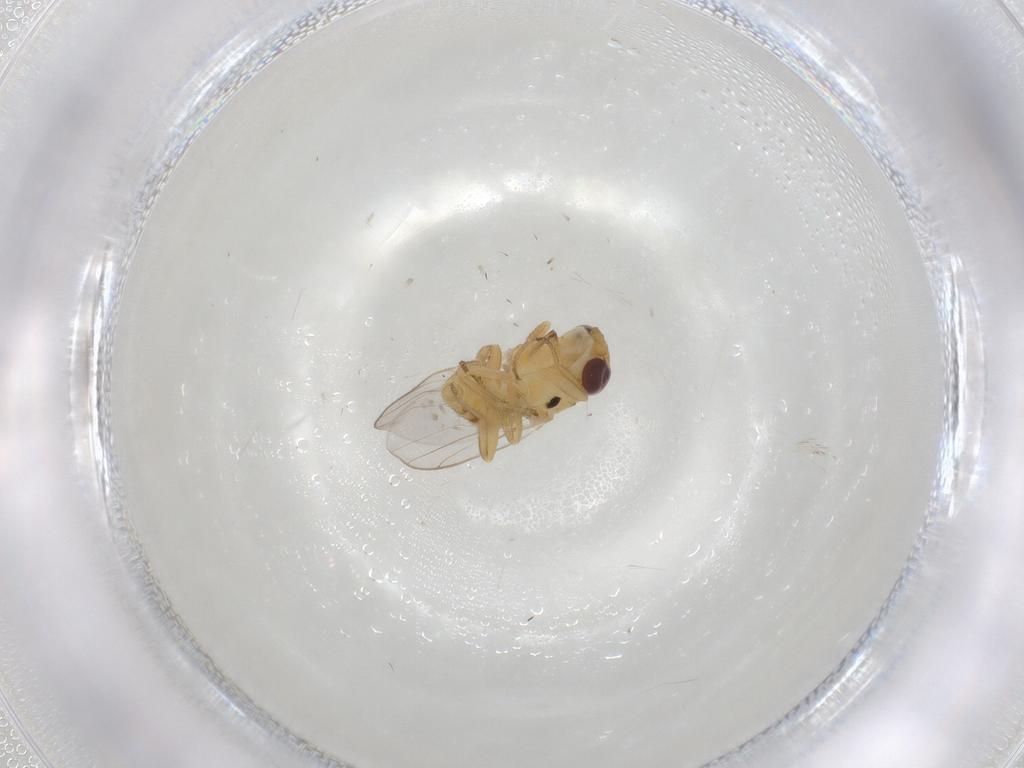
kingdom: Animalia
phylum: Arthropoda
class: Insecta
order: Diptera
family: Chloropidae
